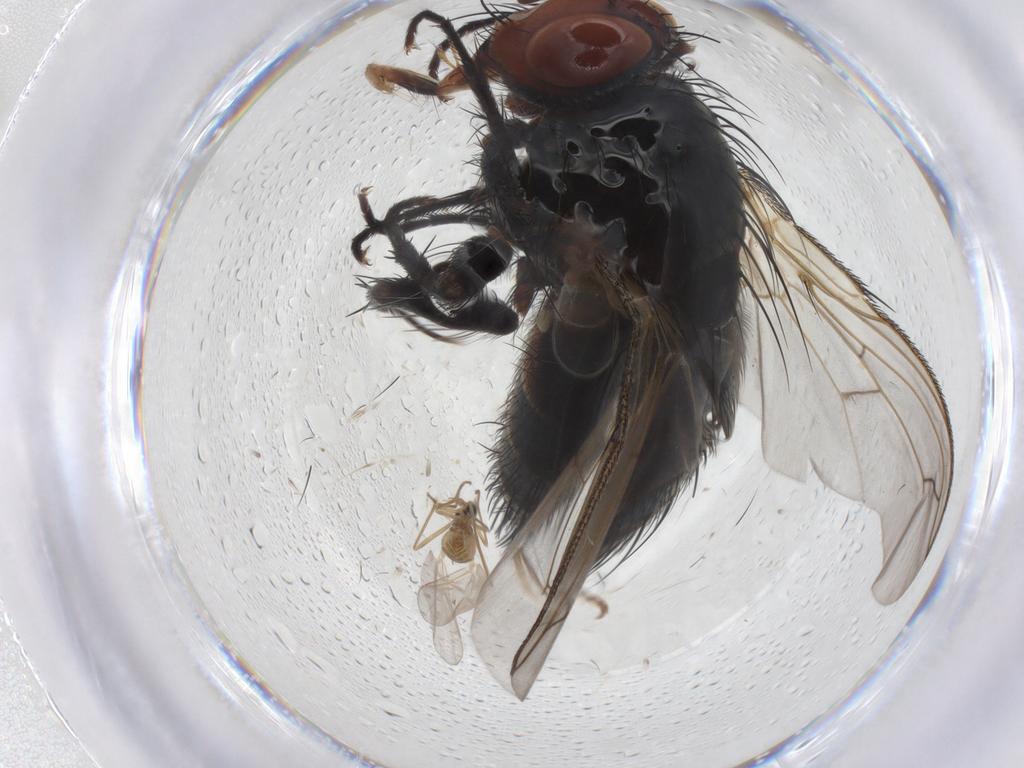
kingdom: Animalia
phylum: Arthropoda
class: Insecta
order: Diptera
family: Tachinidae
